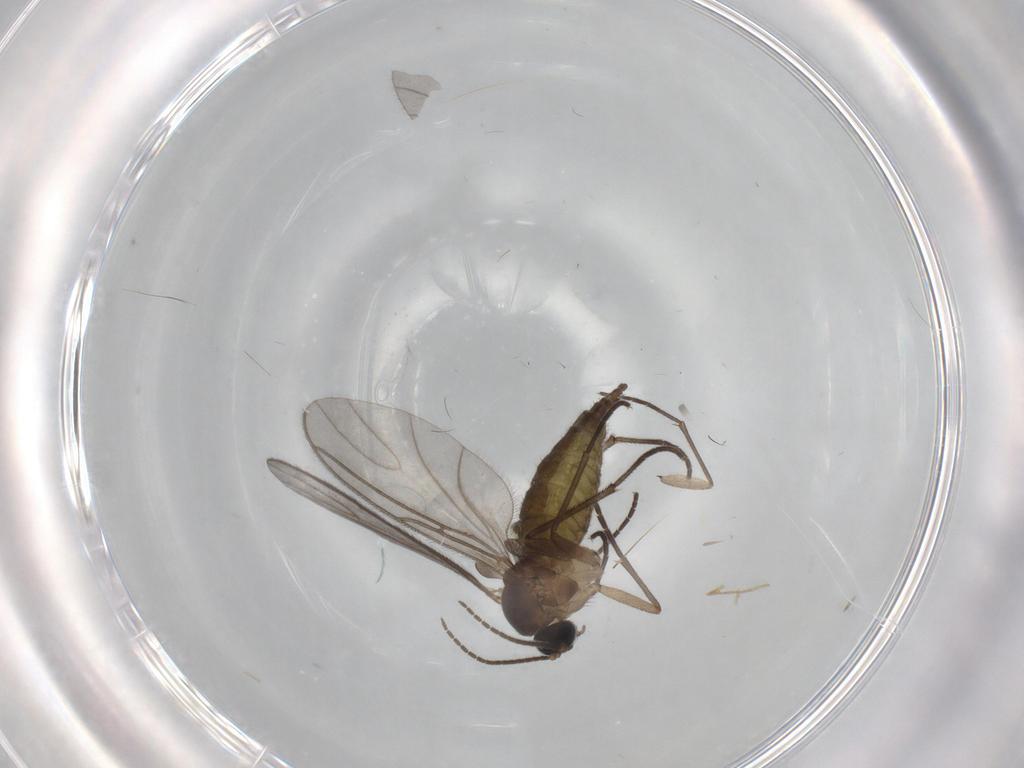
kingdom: Animalia
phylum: Arthropoda
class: Insecta
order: Diptera
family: Sciaridae
